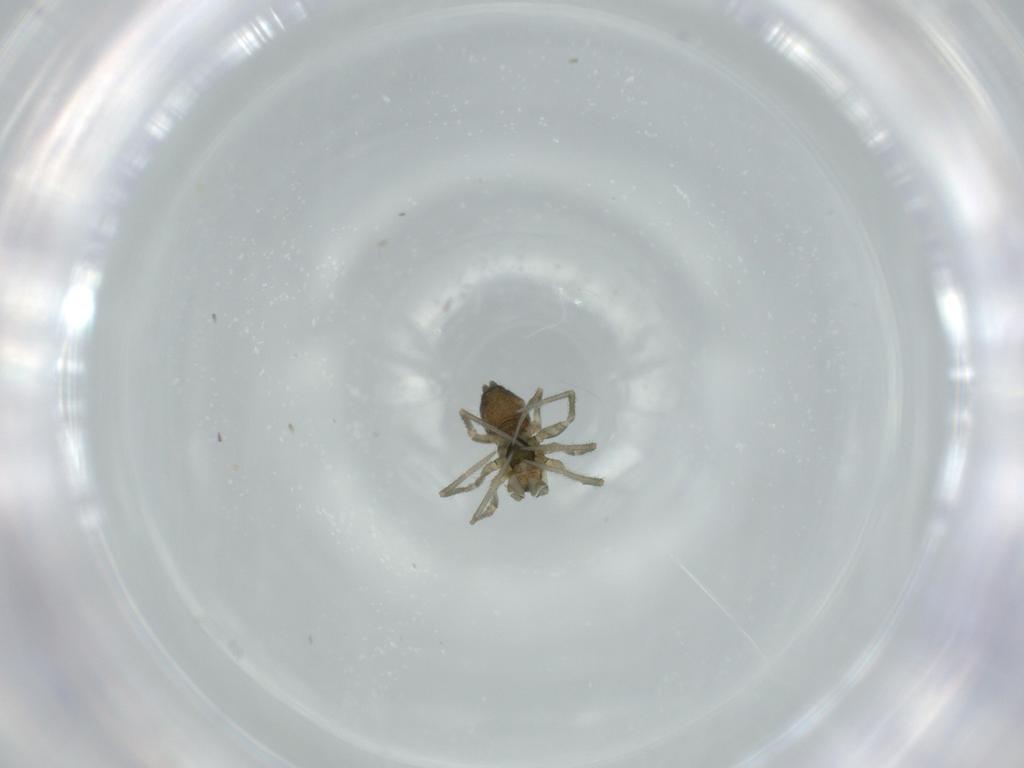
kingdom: Animalia
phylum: Arthropoda
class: Arachnida
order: Araneae
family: Linyphiidae
